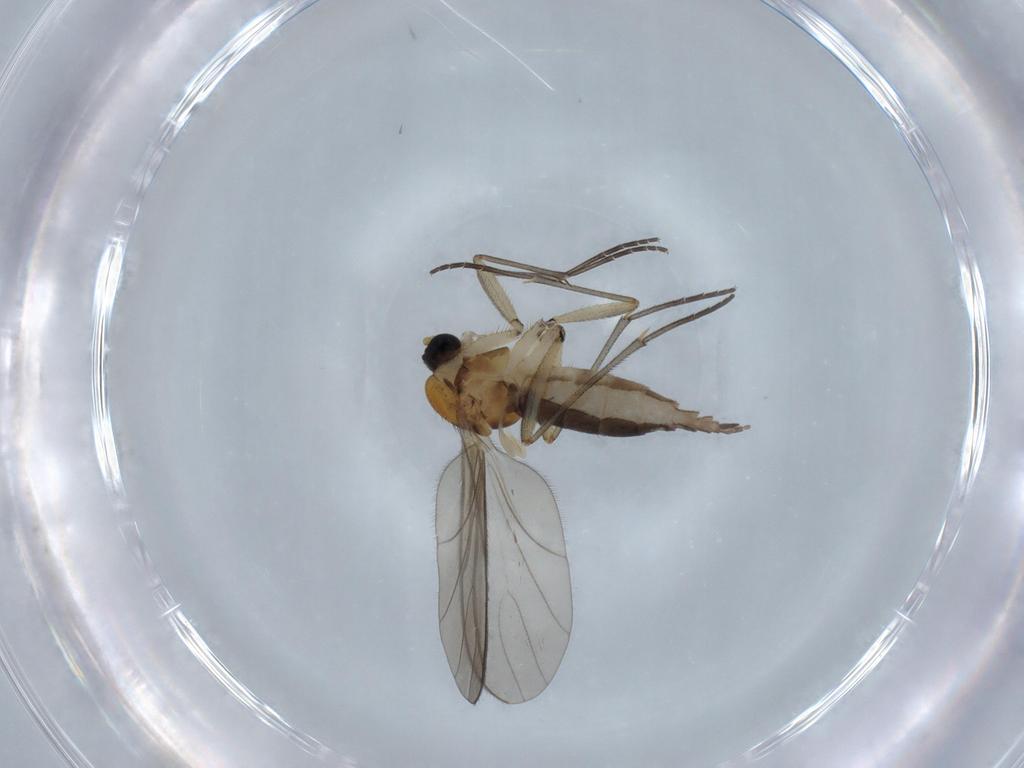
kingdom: Animalia
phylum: Arthropoda
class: Insecta
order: Diptera
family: Sciaridae
